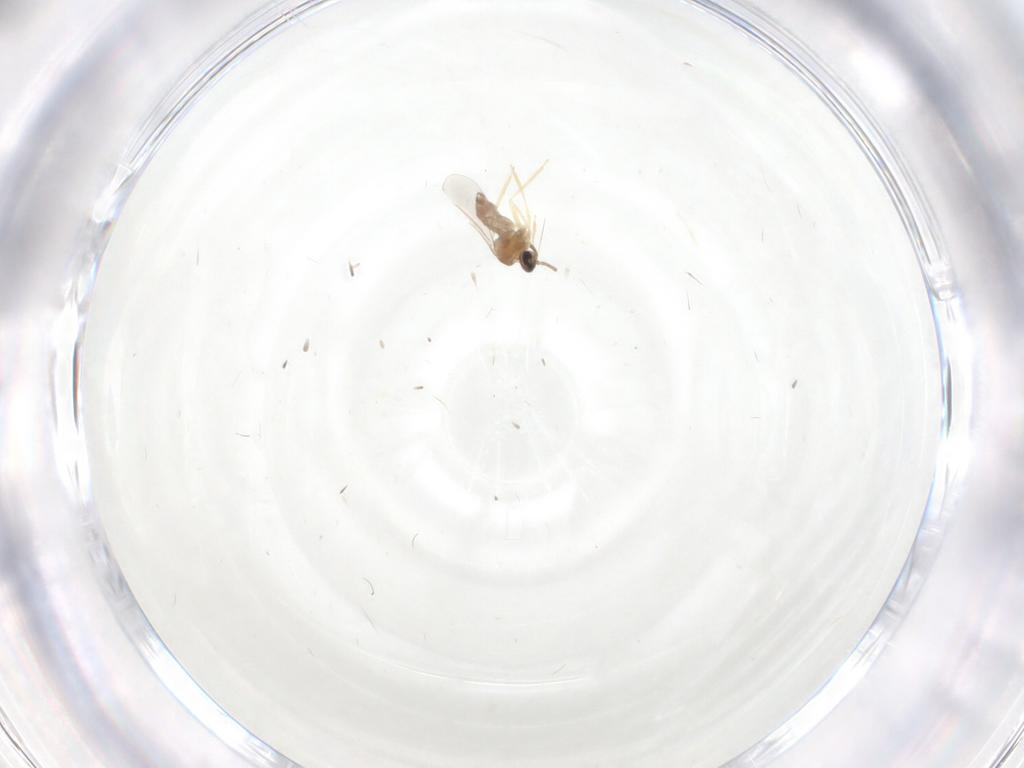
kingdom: Animalia
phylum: Arthropoda
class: Insecta
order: Diptera
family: Cecidomyiidae
